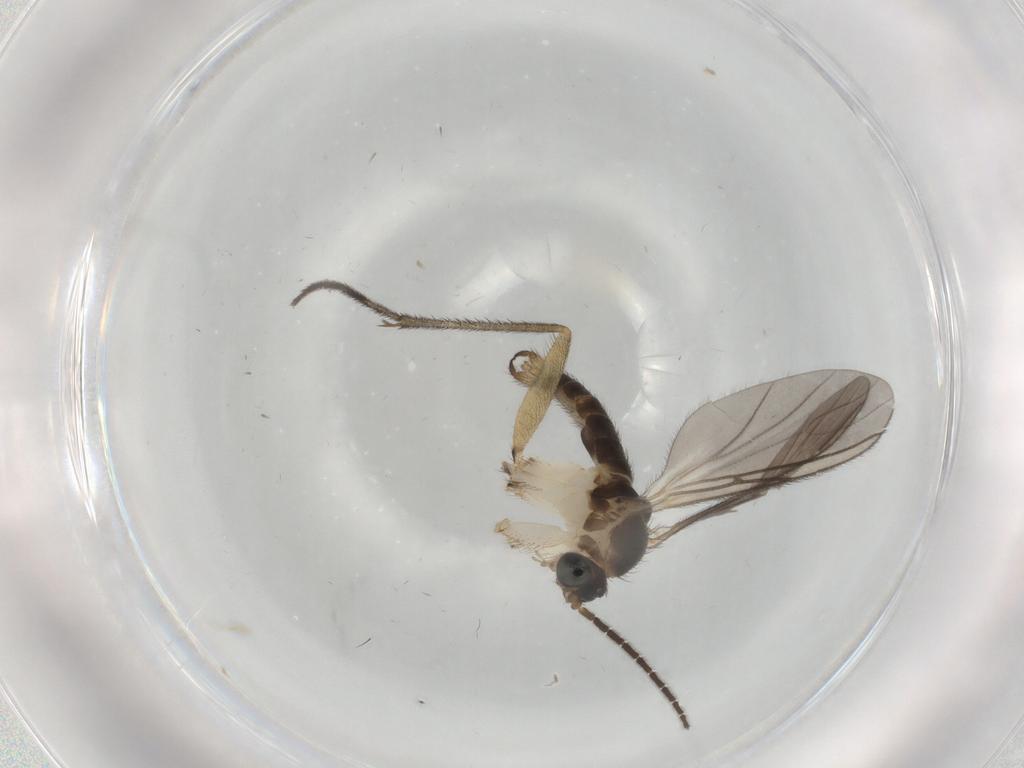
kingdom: Animalia
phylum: Arthropoda
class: Insecta
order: Diptera
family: Sciaridae
